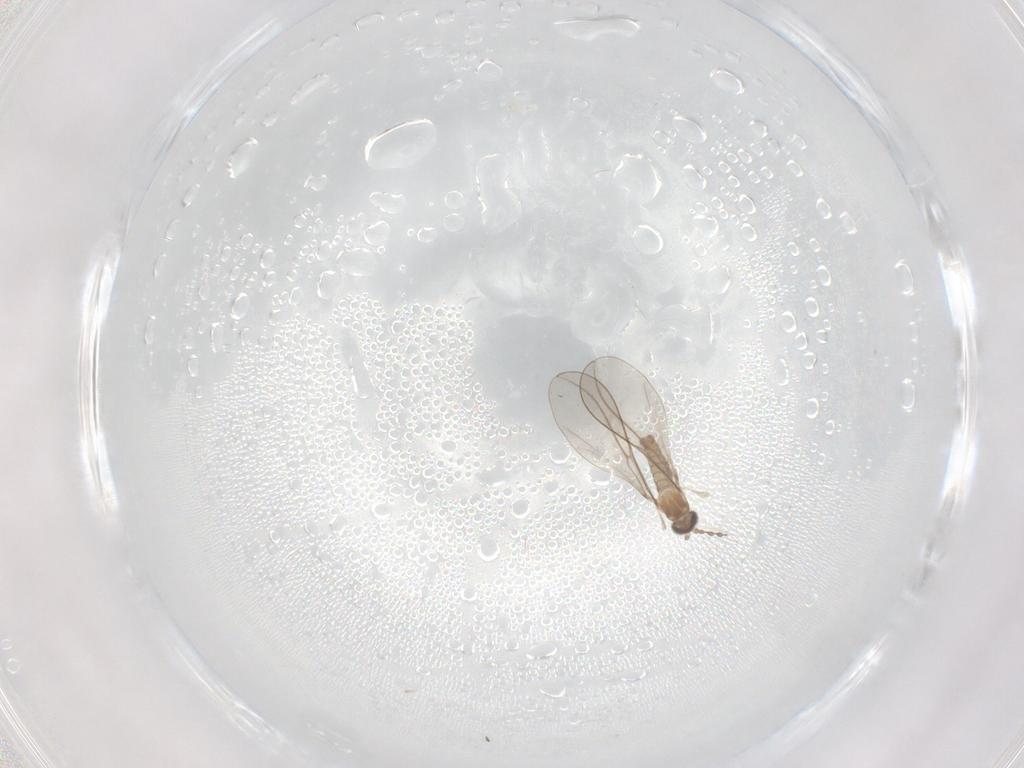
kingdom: Animalia
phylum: Arthropoda
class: Insecta
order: Diptera
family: Cecidomyiidae
